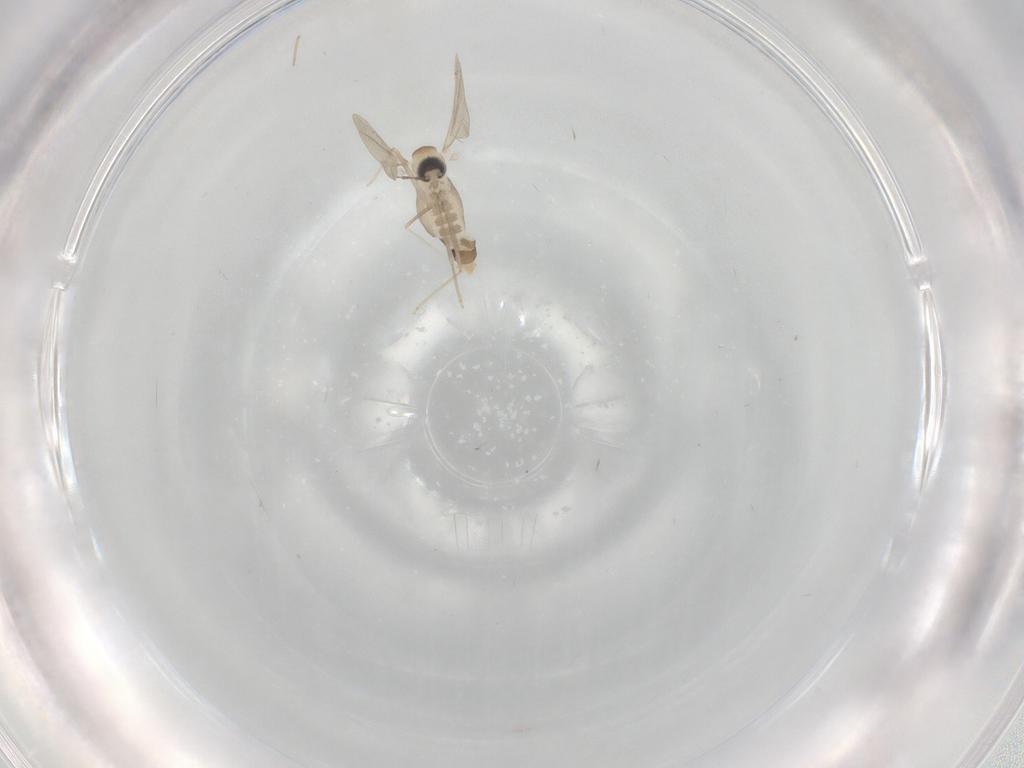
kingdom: Animalia
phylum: Arthropoda
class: Insecta
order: Diptera
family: Cecidomyiidae
